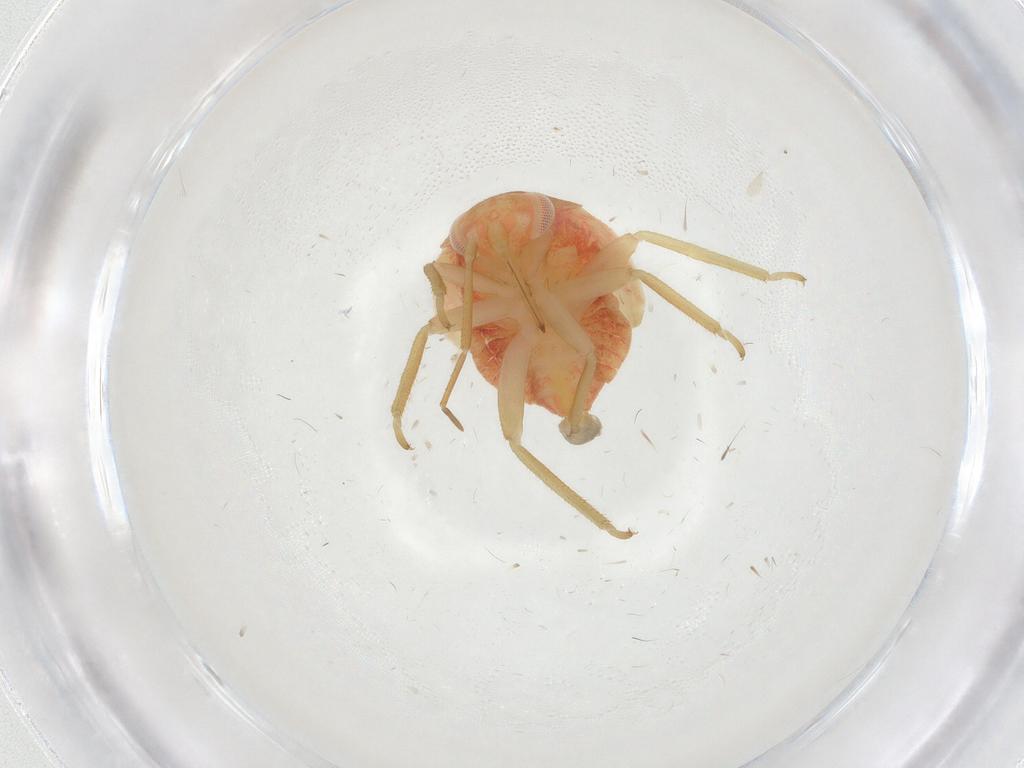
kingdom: Animalia
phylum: Arthropoda
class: Insecta
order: Hemiptera
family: Miridae
